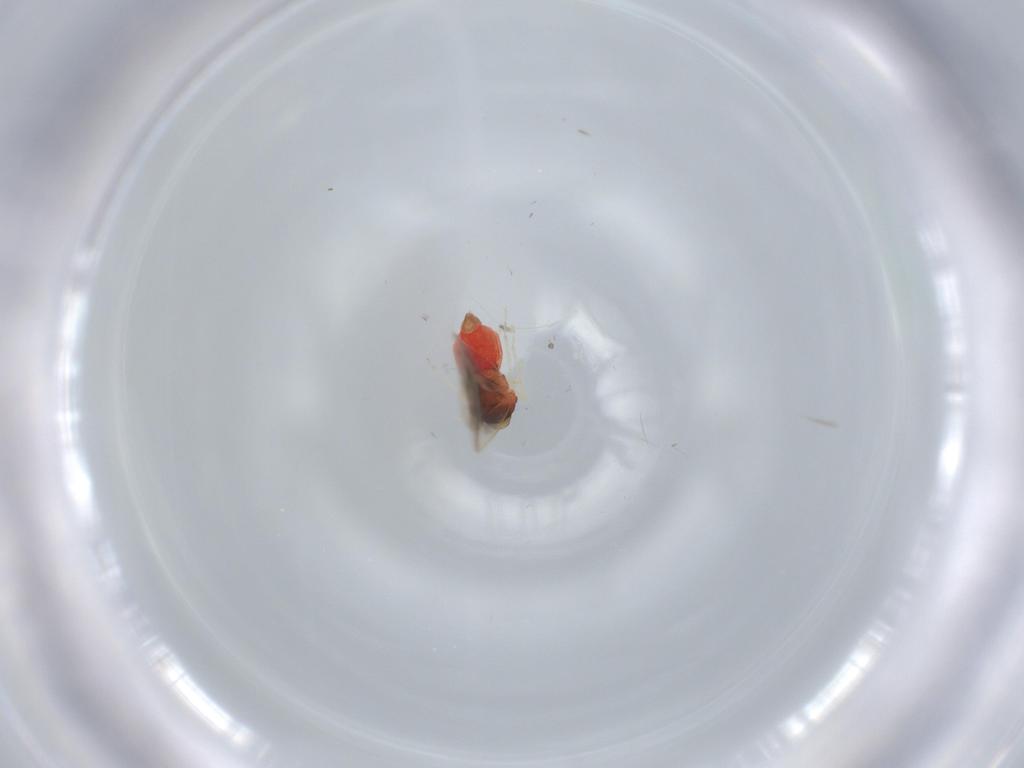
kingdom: Animalia
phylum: Arthropoda
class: Insecta
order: Hemiptera
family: Aleyrodidae
